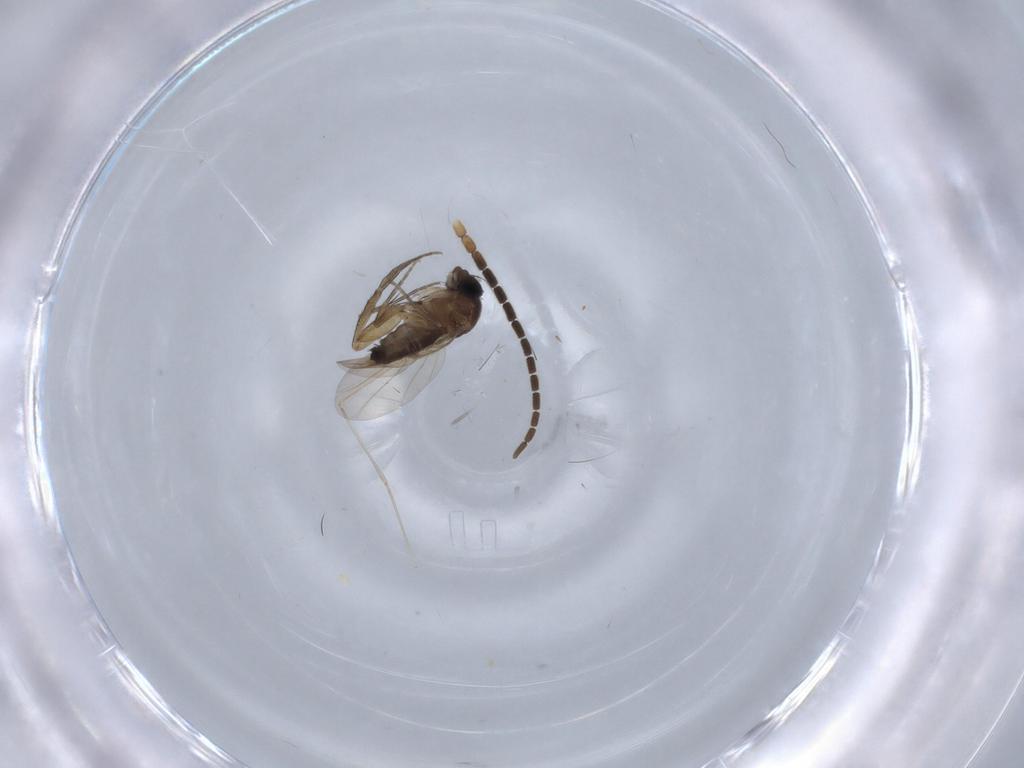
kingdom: Animalia
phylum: Arthropoda
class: Insecta
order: Diptera
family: Phoridae
